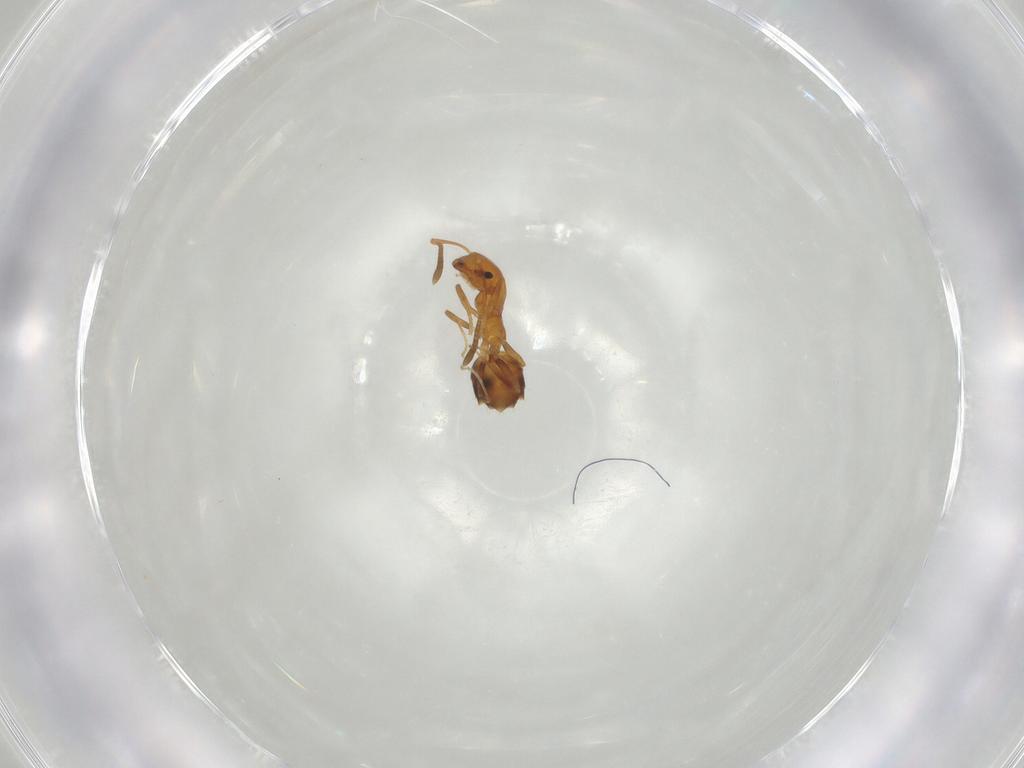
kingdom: Animalia
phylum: Arthropoda
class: Insecta
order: Hymenoptera
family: Formicidae
